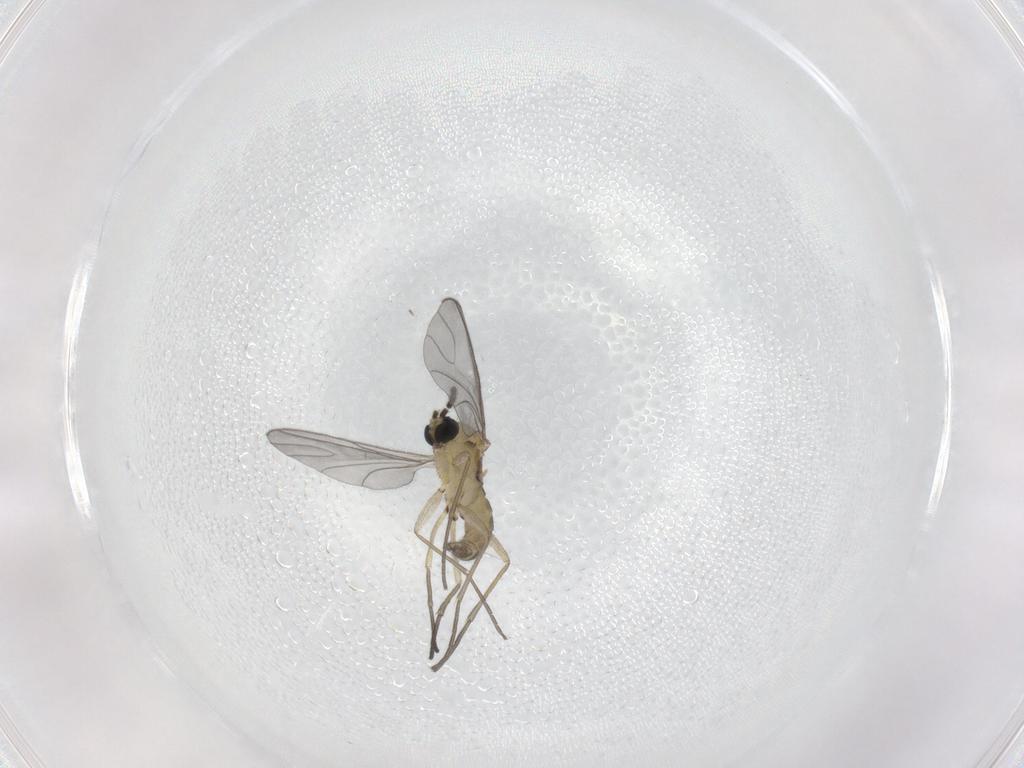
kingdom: Animalia
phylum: Arthropoda
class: Insecta
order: Diptera
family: Sciaridae
